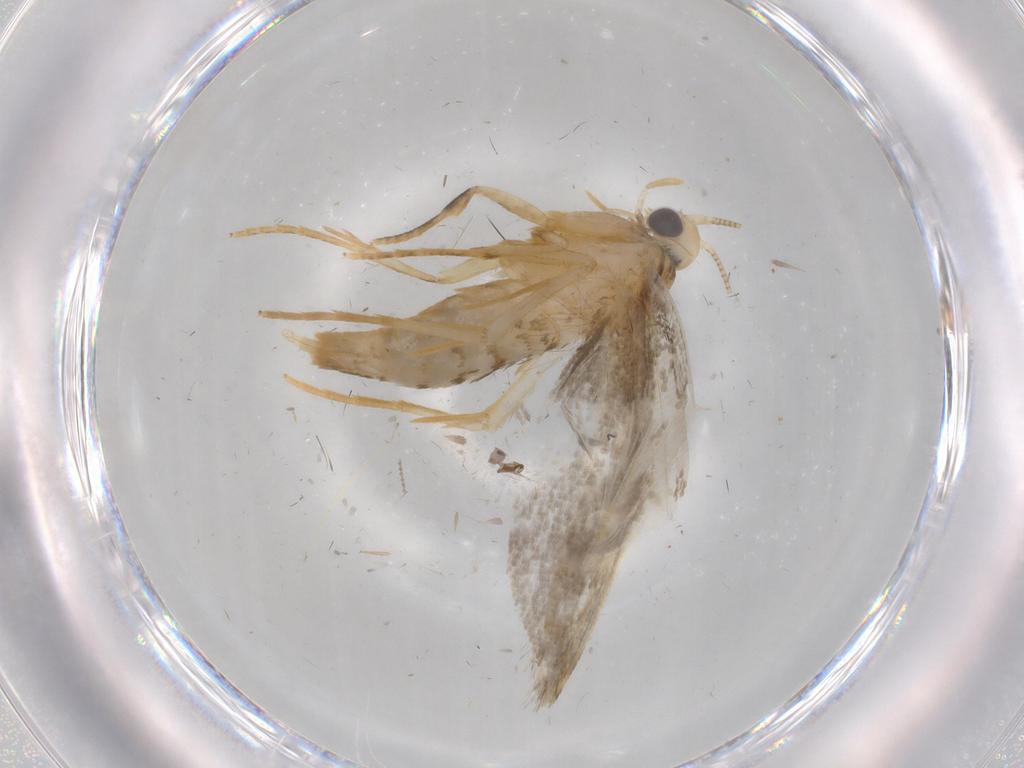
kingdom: Animalia
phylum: Arthropoda
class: Insecta
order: Lepidoptera
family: Tineidae
